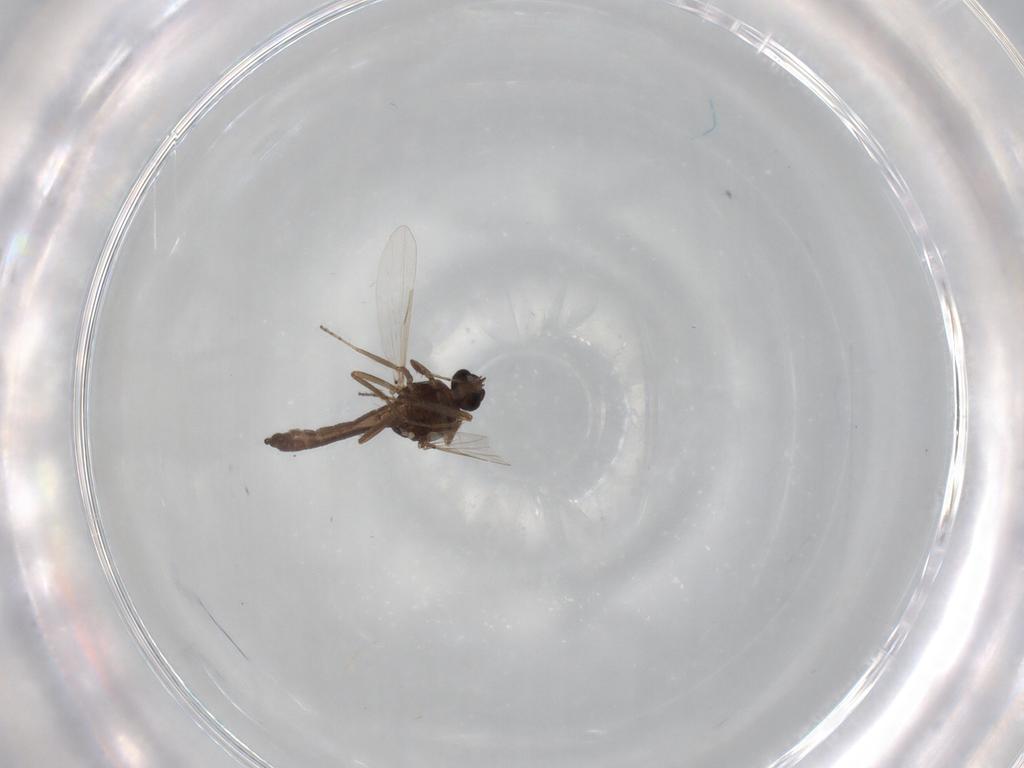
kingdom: Animalia
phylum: Arthropoda
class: Insecta
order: Diptera
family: Ceratopogonidae
